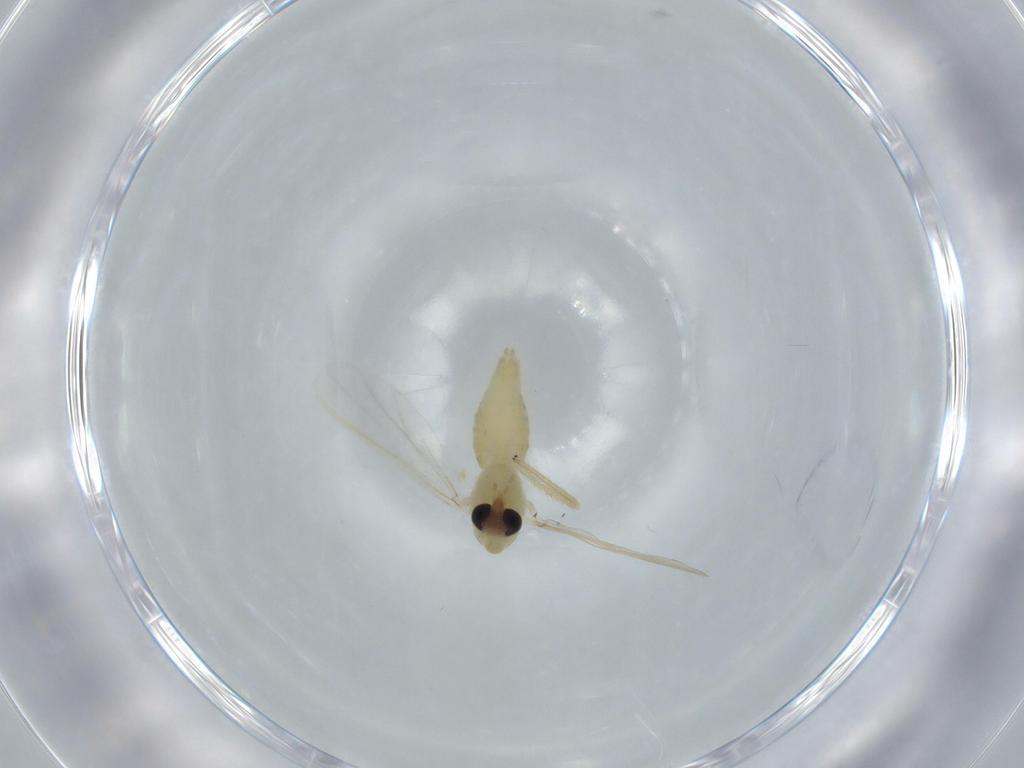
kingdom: Animalia
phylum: Arthropoda
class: Insecta
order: Diptera
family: Chironomidae
